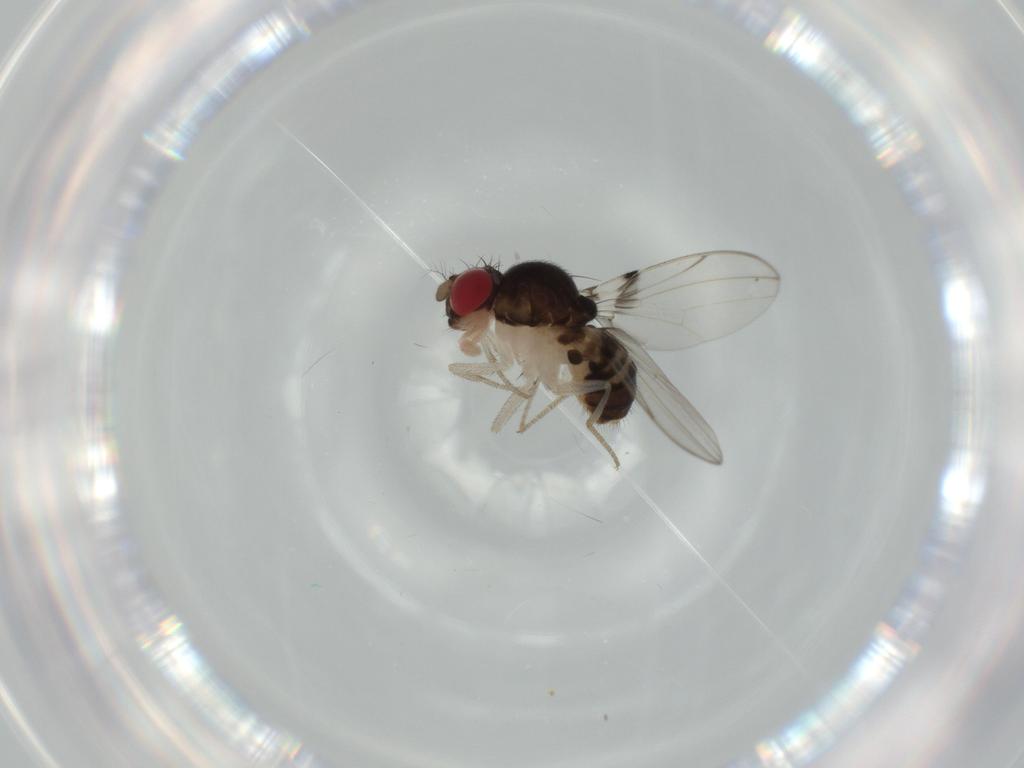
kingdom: Animalia
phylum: Arthropoda
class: Insecta
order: Diptera
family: Drosophilidae
